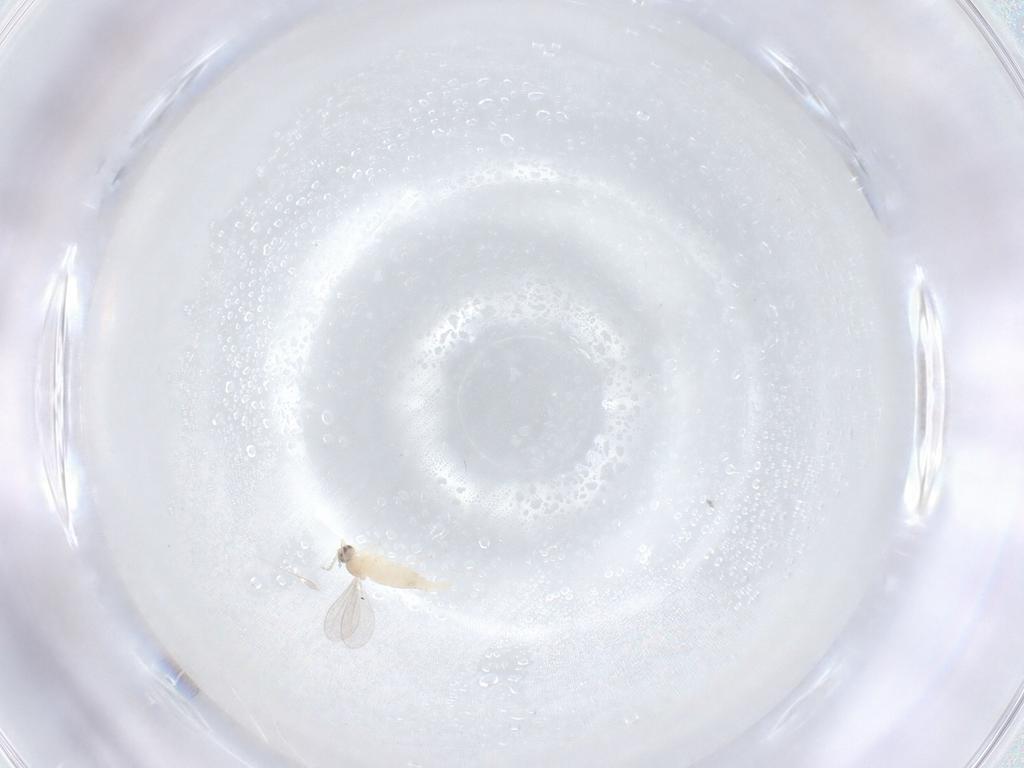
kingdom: Animalia
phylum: Arthropoda
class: Insecta
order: Diptera
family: Cecidomyiidae
